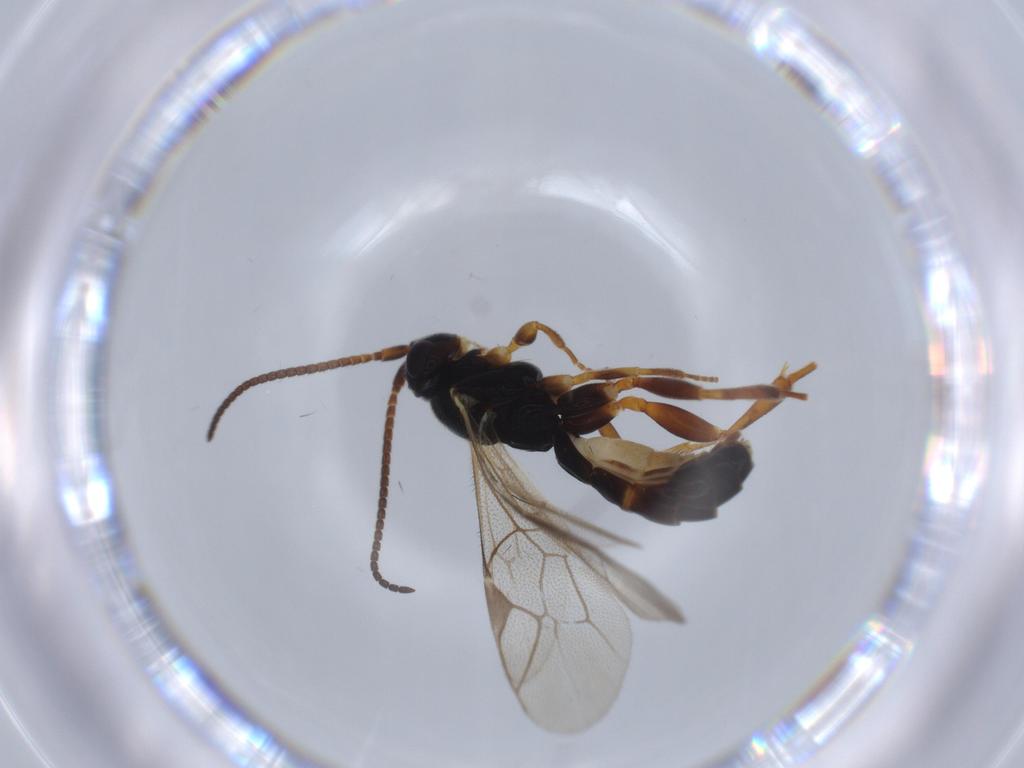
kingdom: Animalia
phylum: Arthropoda
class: Insecta
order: Hymenoptera
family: Ichneumonidae
